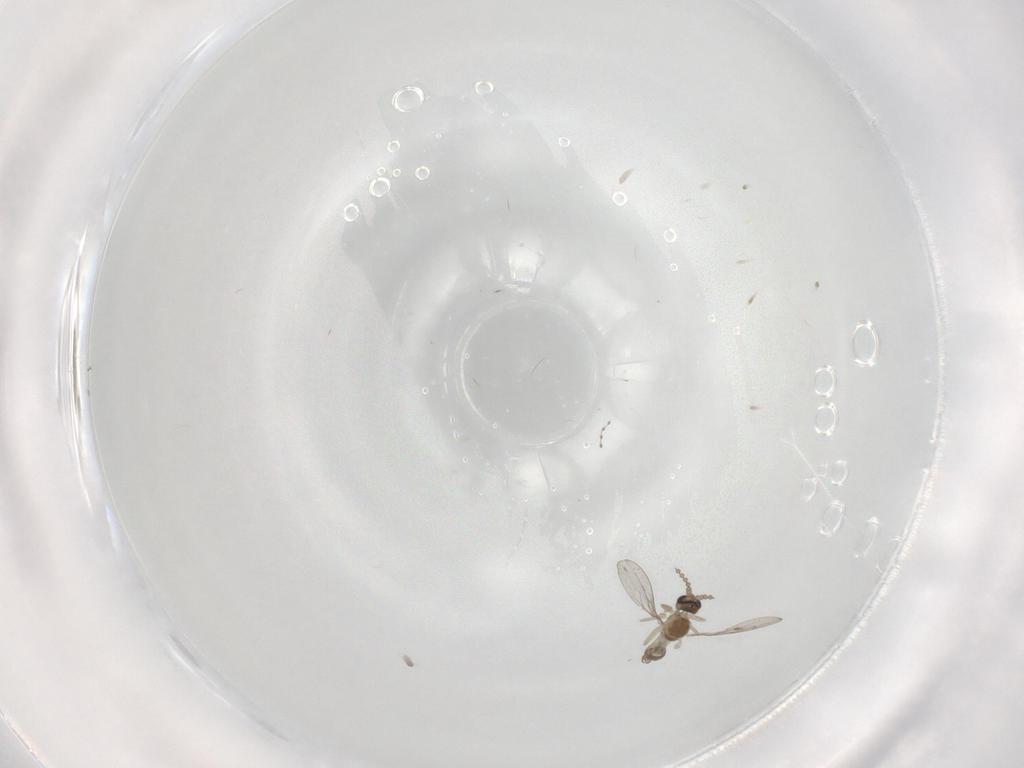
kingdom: Animalia
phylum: Arthropoda
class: Insecta
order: Diptera
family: Cecidomyiidae
